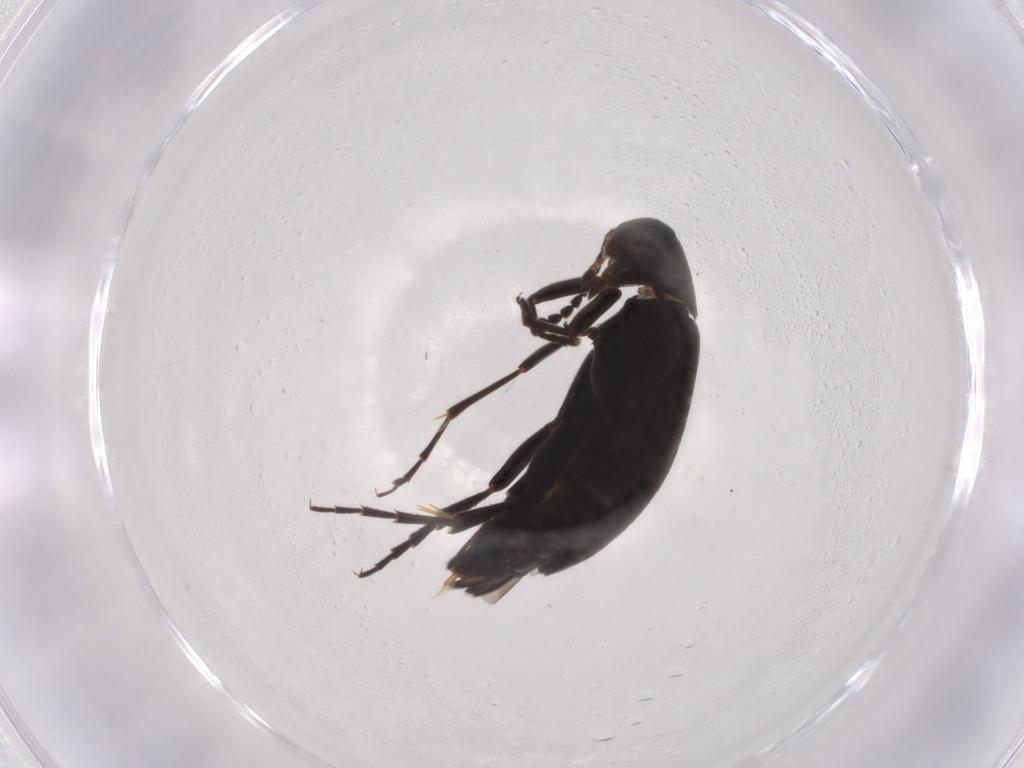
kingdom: Animalia
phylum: Arthropoda
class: Insecta
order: Coleoptera
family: Scraptiidae
